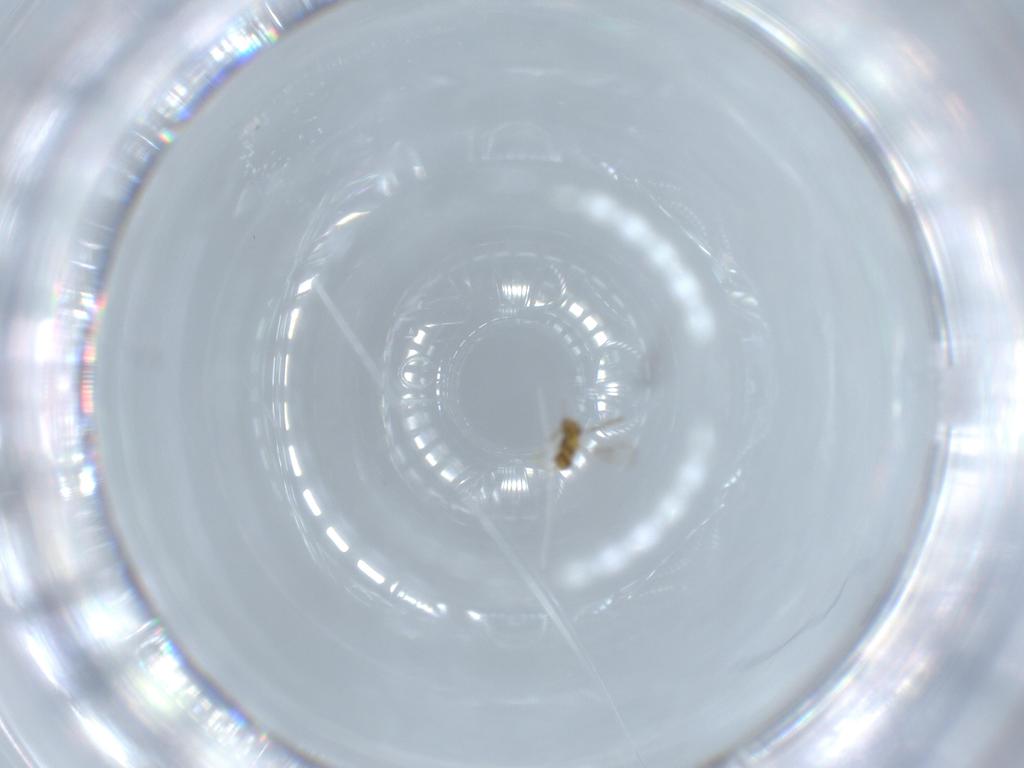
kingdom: Animalia
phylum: Arthropoda
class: Insecta
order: Hymenoptera
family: Aphelinidae
